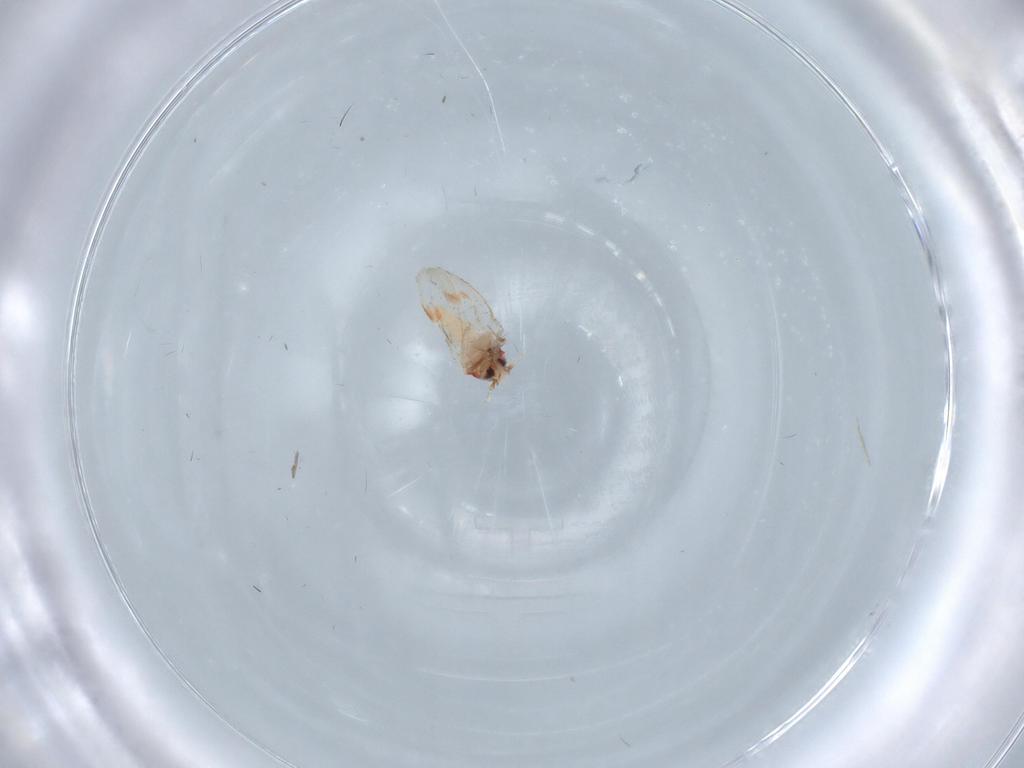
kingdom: Animalia
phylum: Arthropoda
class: Insecta
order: Hemiptera
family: Aleyrodidae
